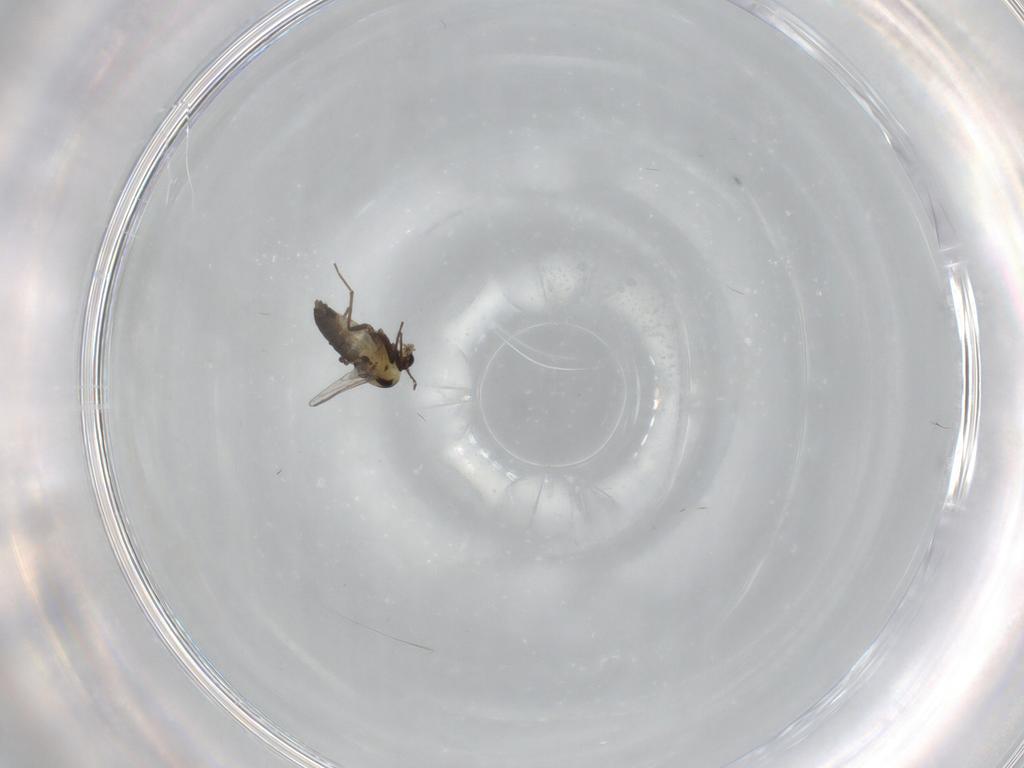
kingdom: Animalia
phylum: Arthropoda
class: Insecta
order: Diptera
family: Chironomidae
